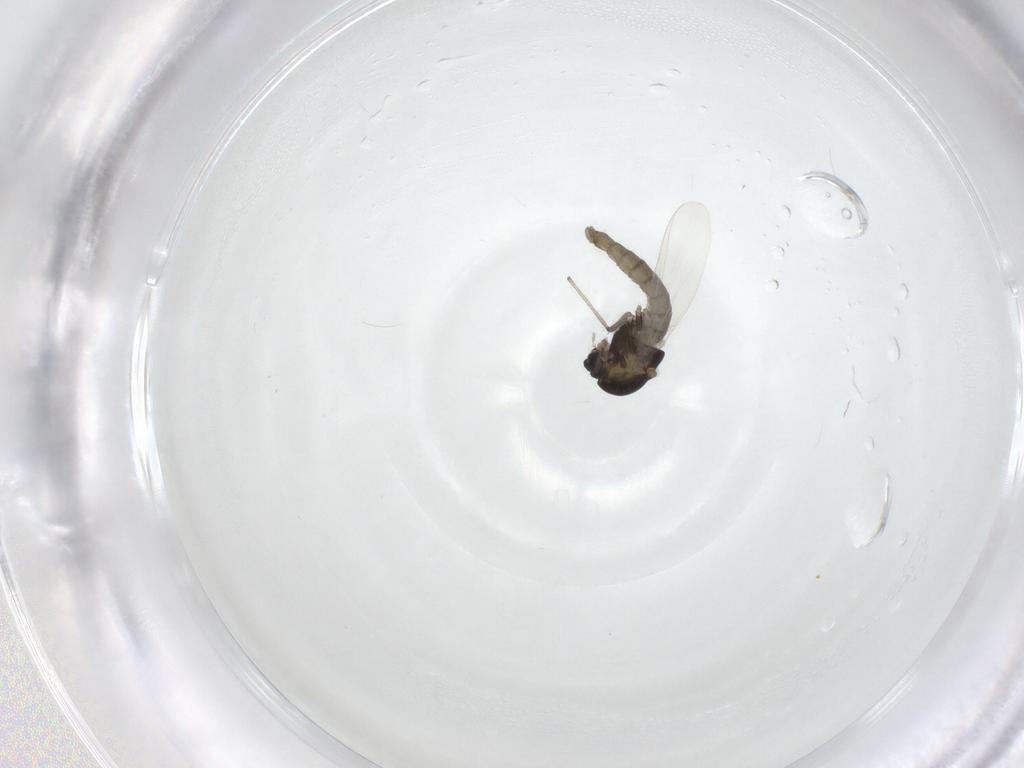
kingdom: Animalia
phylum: Arthropoda
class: Insecta
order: Diptera
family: Chironomidae
